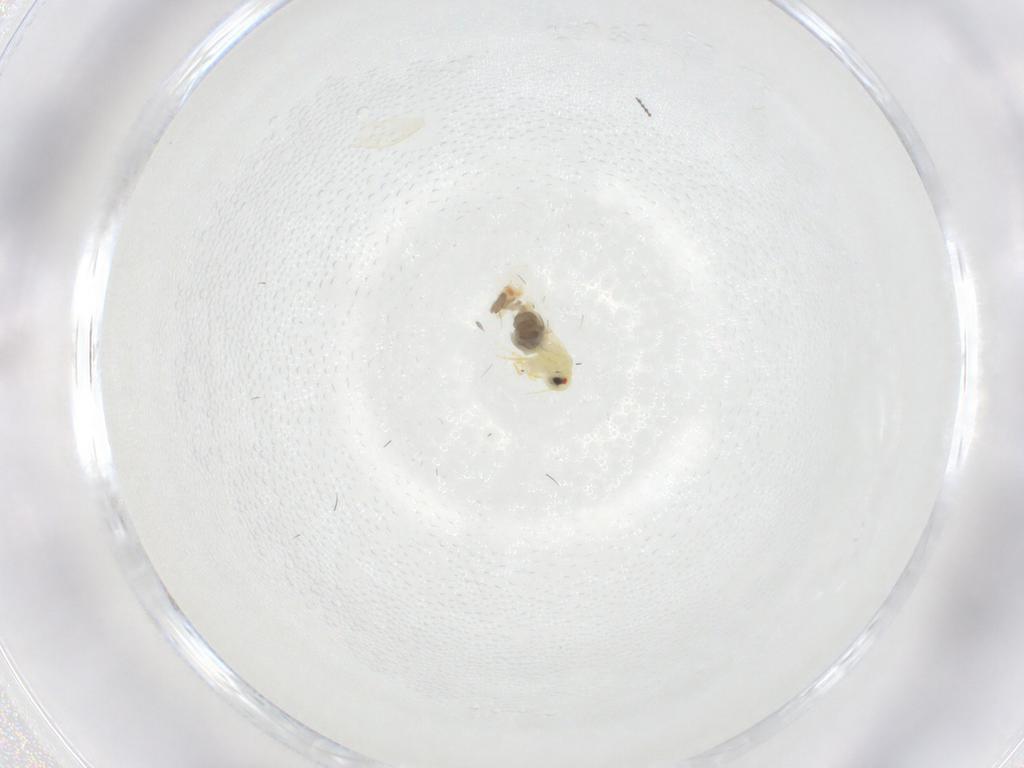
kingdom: Animalia
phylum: Arthropoda
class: Insecta
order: Hemiptera
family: Aleyrodidae
